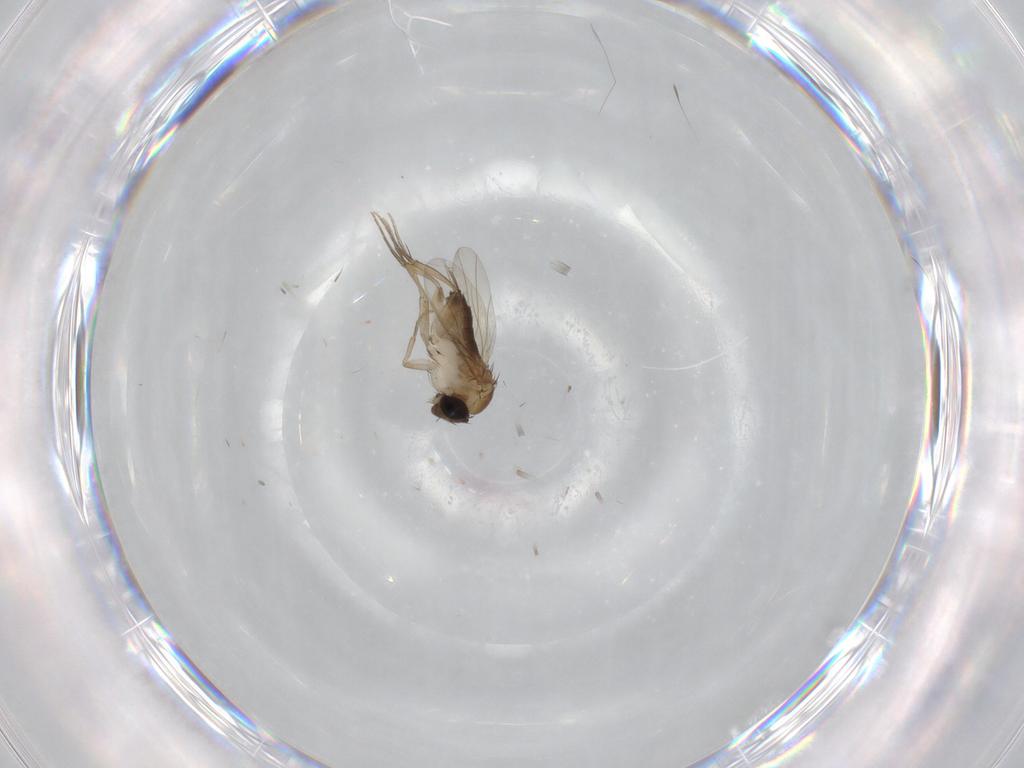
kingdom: Animalia
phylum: Arthropoda
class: Insecta
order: Diptera
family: Phoridae
